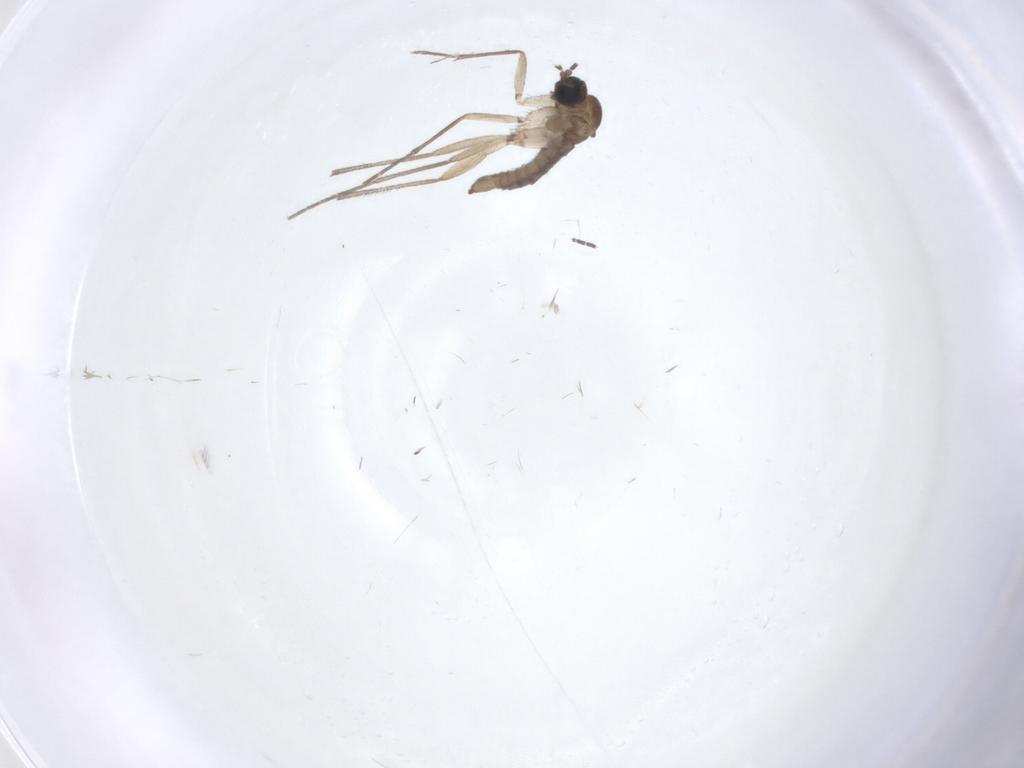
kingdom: Animalia
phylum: Arthropoda
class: Insecta
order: Diptera
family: Sciaridae
